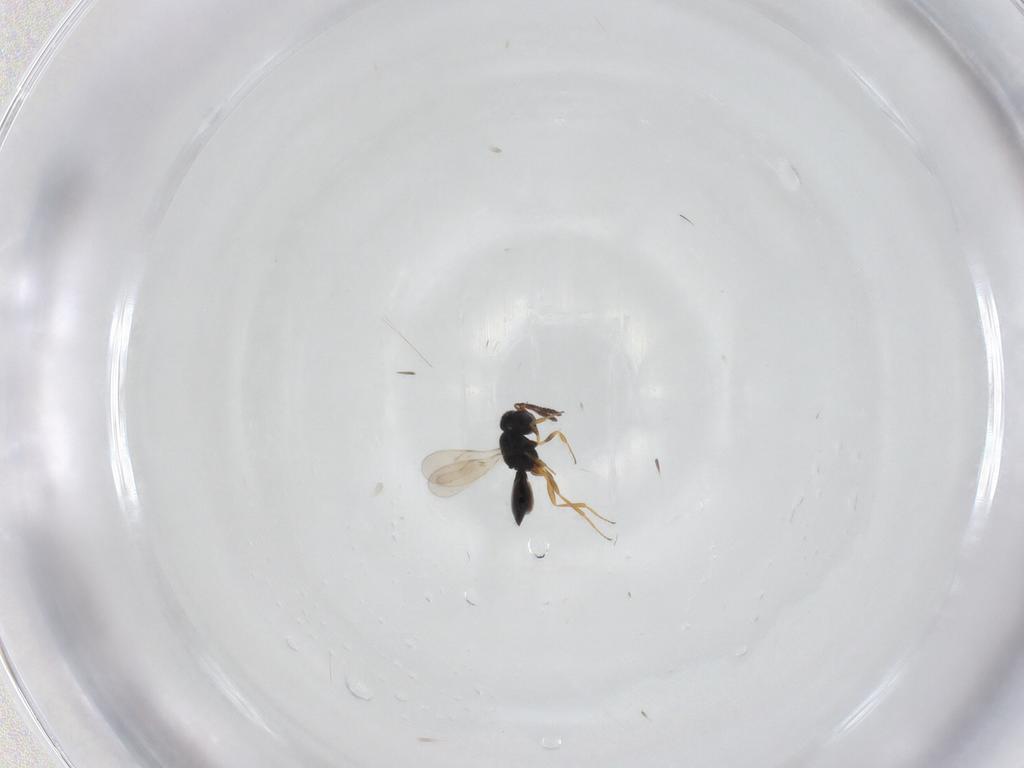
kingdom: Animalia
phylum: Arthropoda
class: Insecta
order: Hymenoptera
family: Scelionidae
